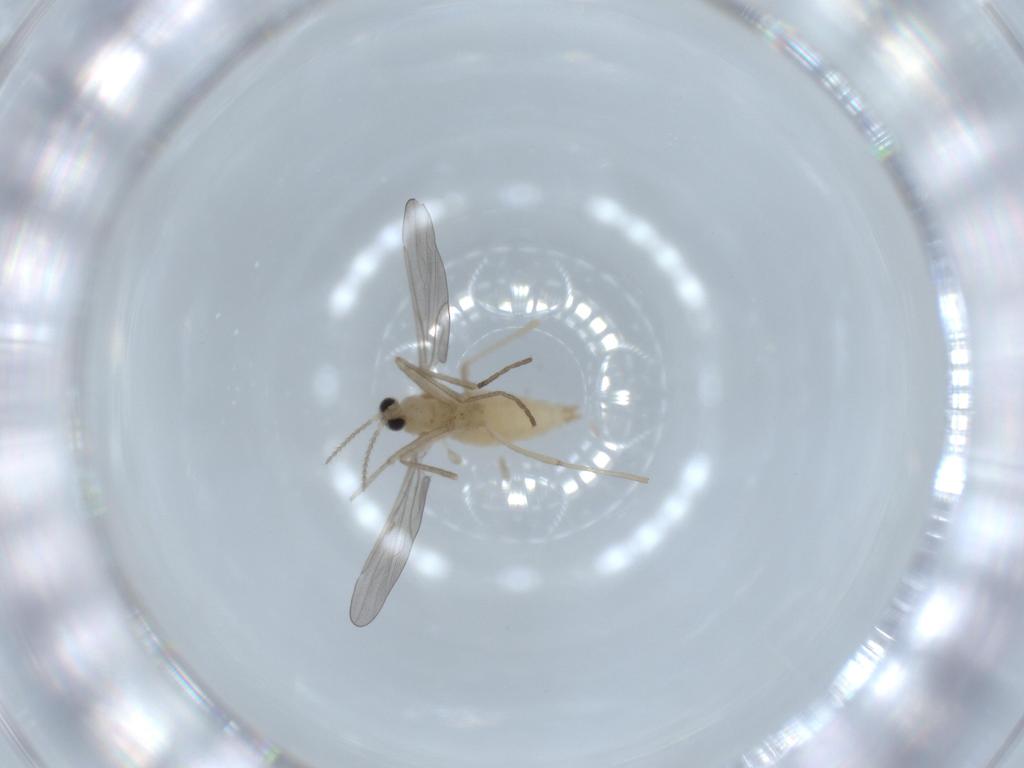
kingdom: Animalia
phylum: Arthropoda
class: Insecta
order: Diptera
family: Cecidomyiidae
